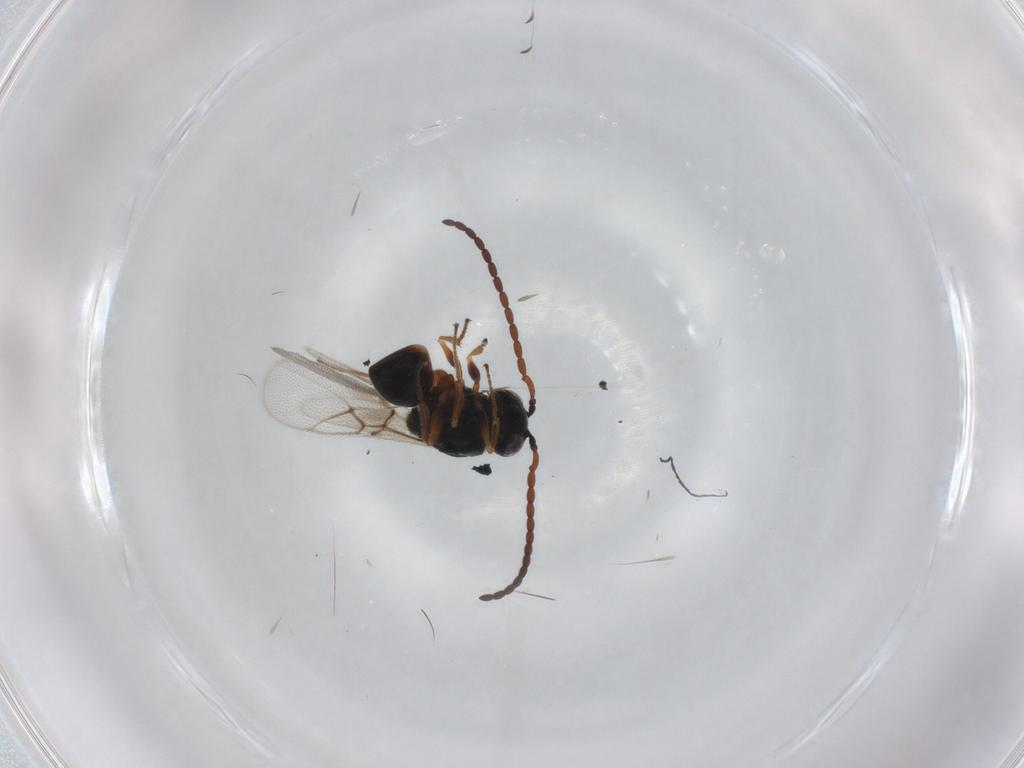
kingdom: Animalia
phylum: Arthropoda
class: Insecta
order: Hymenoptera
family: Figitidae
